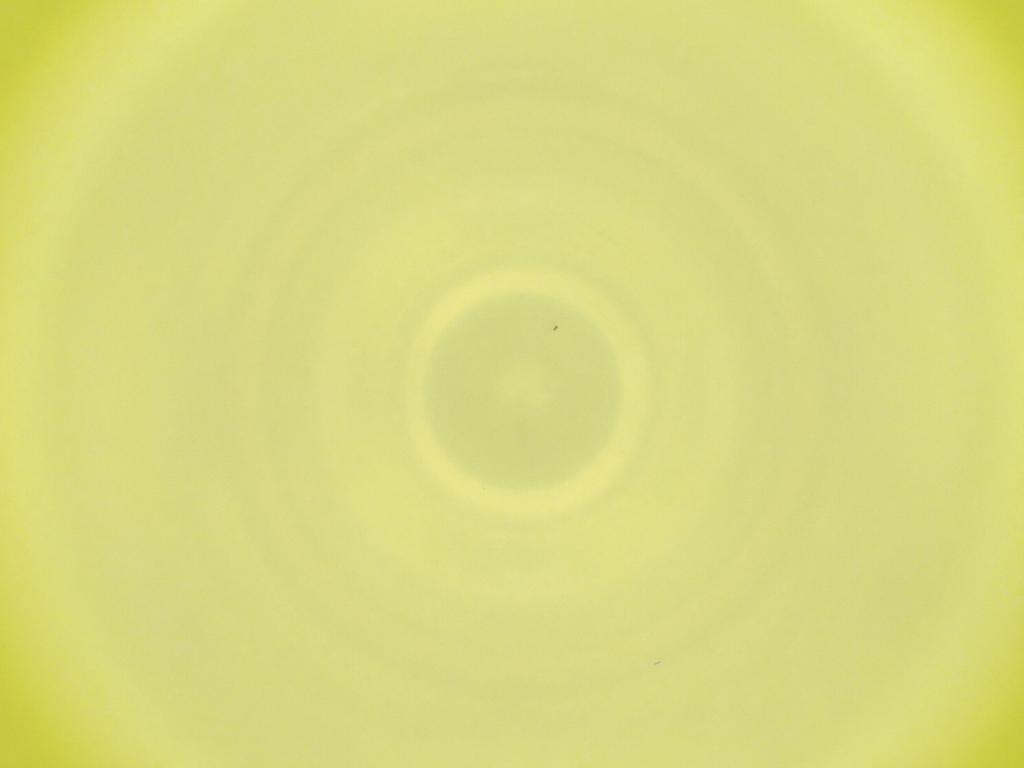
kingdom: Animalia
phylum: Arthropoda
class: Insecta
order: Diptera
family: Cecidomyiidae
